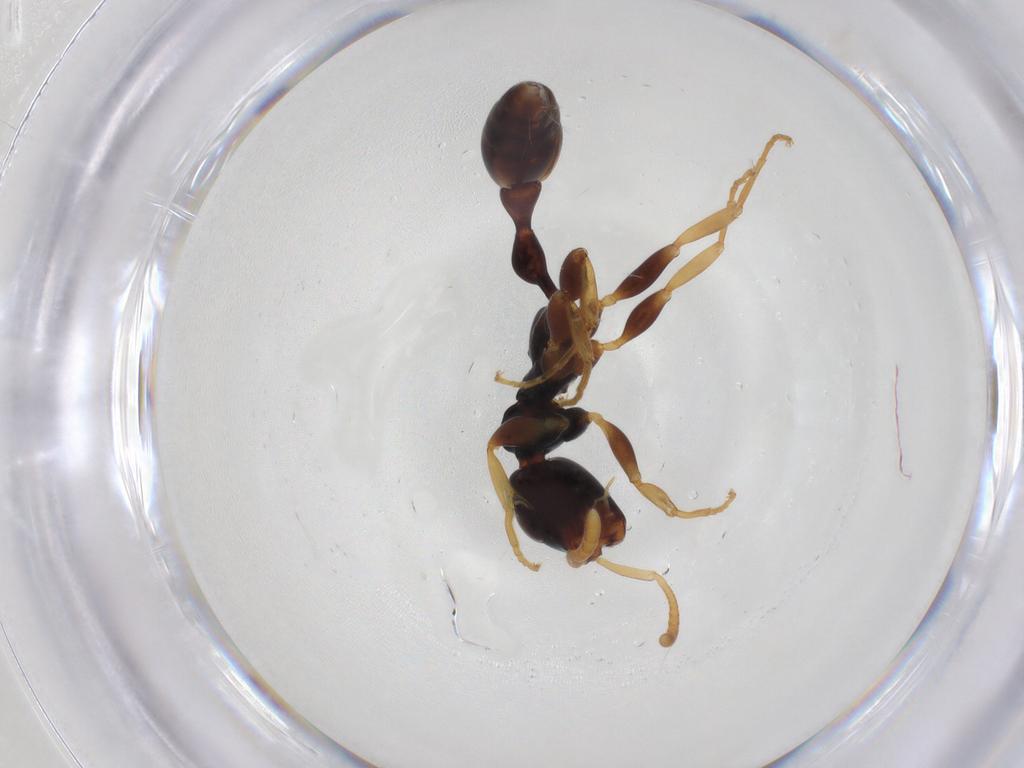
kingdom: Animalia
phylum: Arthropoda
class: Insecta
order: Hymenoptera
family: Formicidae
